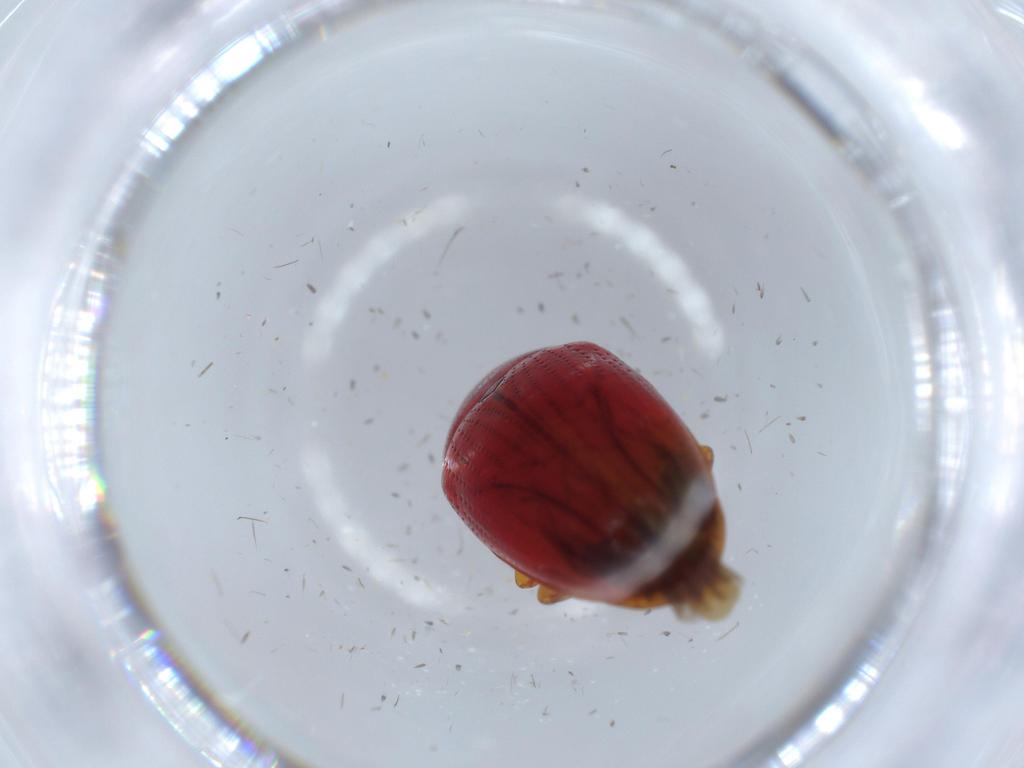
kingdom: Animalia
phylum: Arthropoda
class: Insecta
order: Coleoptera
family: Erotylidae
